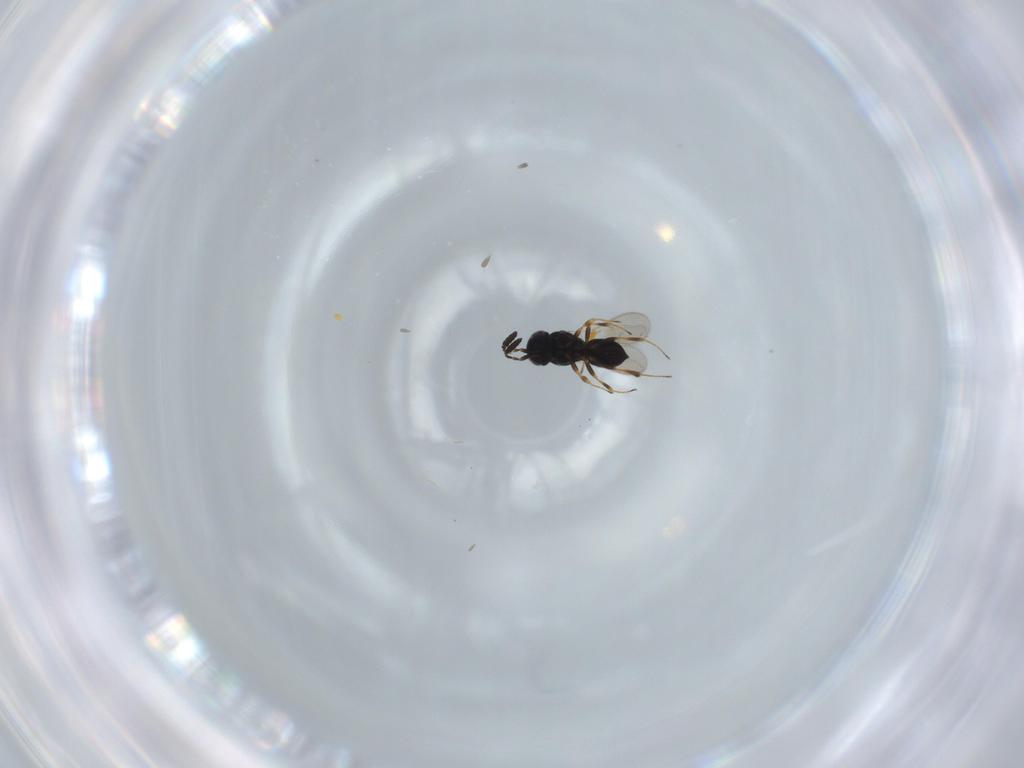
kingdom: Animalia
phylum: Arthropoda
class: Insecta
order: Hymenoptera
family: Scelionidae
